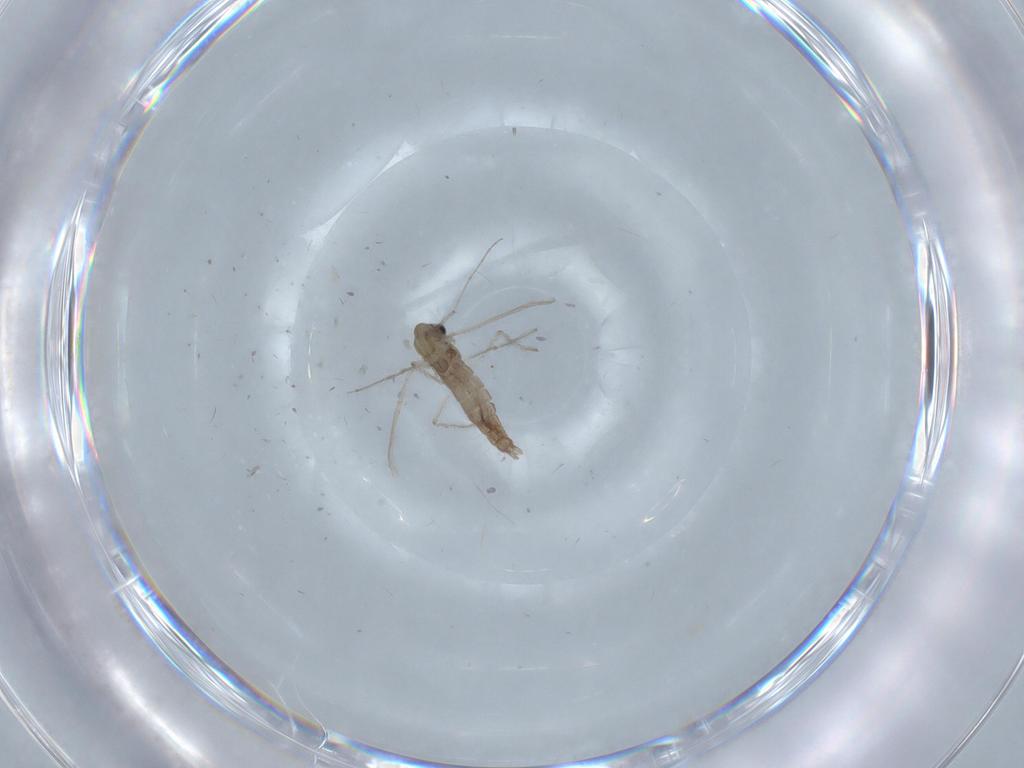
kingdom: Animalia
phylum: Arthropoda
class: Insecta
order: Diptera
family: Chironomidae
